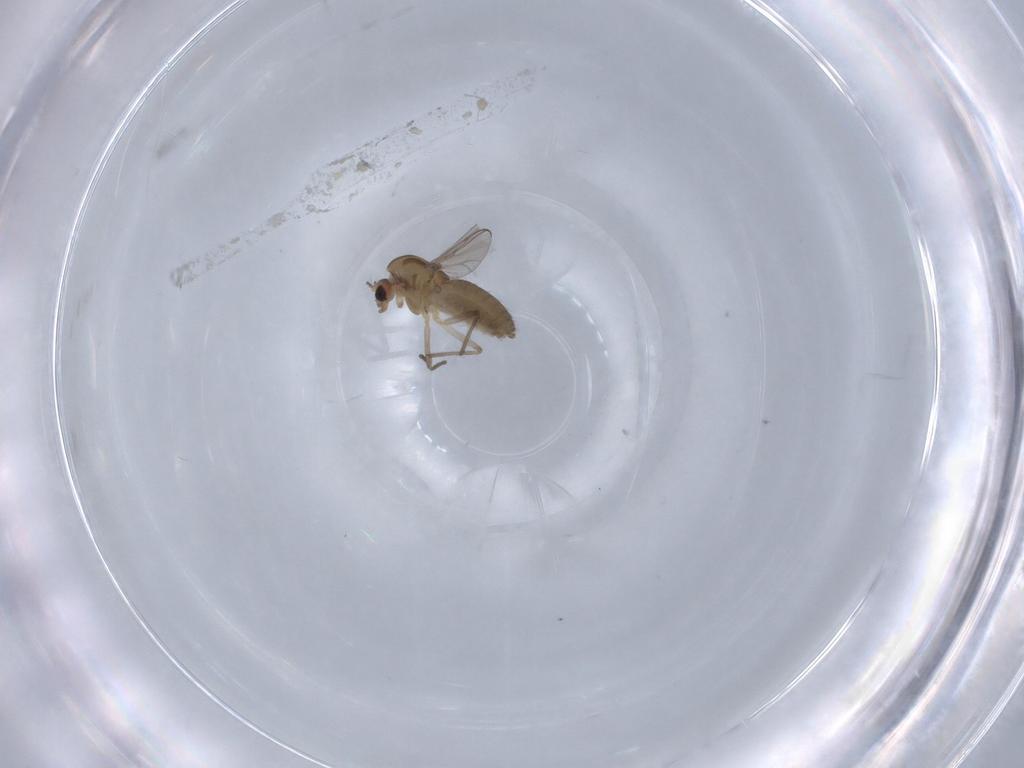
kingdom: Animalia
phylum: Arthropoda
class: Insecta
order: Diptera
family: Chironomidae
